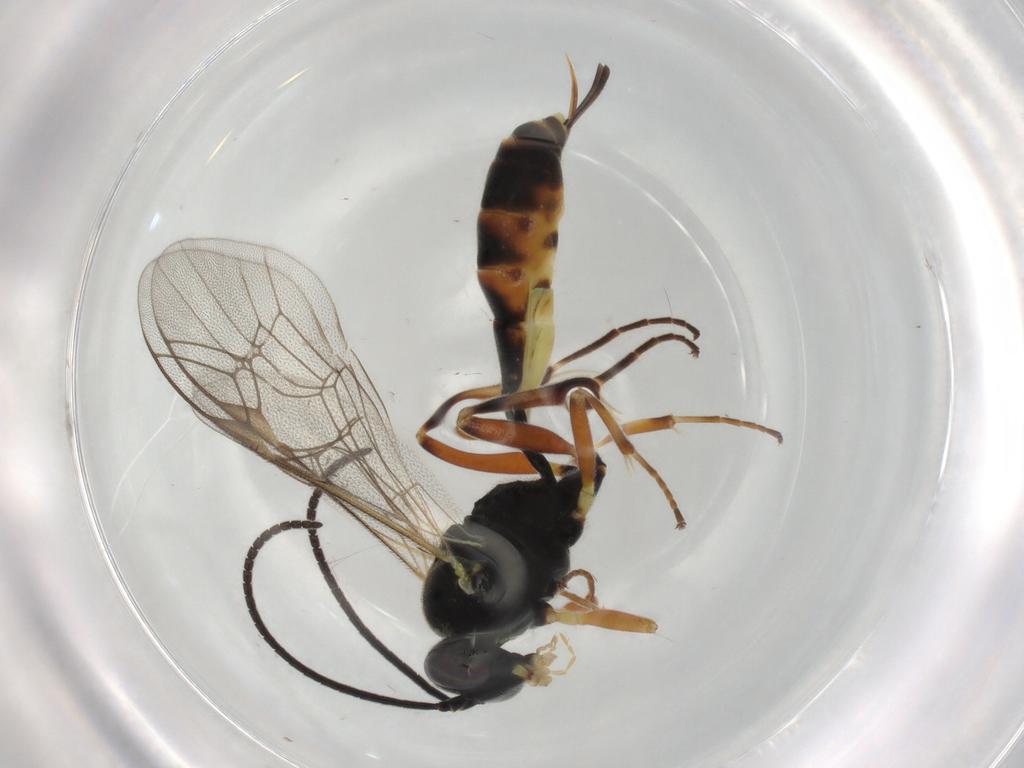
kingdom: Animalia
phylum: Arthropoda
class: Insecta
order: Hymenoptera
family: Ichneumonidae
